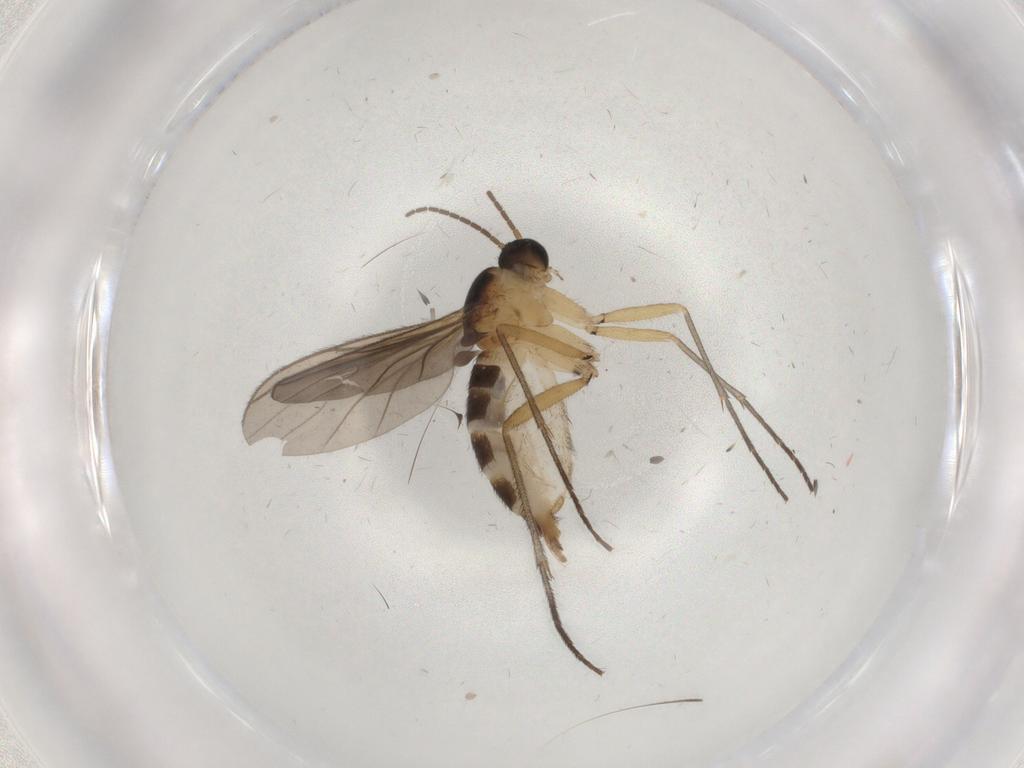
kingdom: Animalia
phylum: Arthropoda
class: Insecta
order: Diptera
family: Sciaridae
